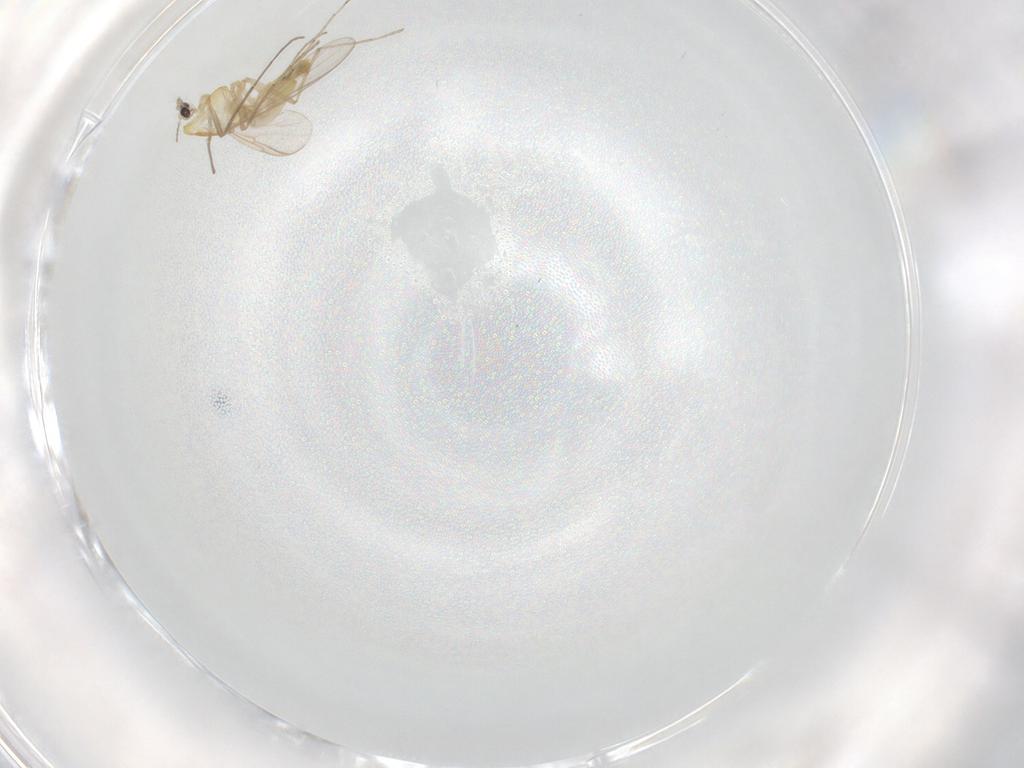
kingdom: Animalia
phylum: Arthropoda
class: Insecta
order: Diptera
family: Chironomidae
